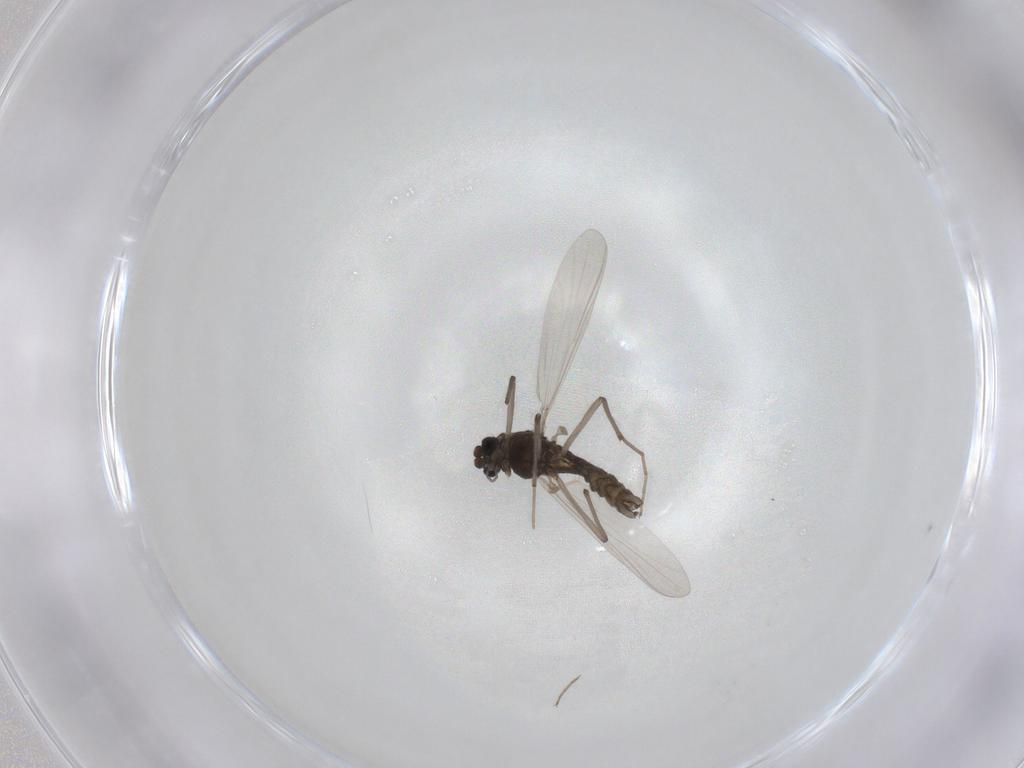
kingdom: Animalia
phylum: Arthropoda
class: Insecta
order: Diptera
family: Chironomidae
